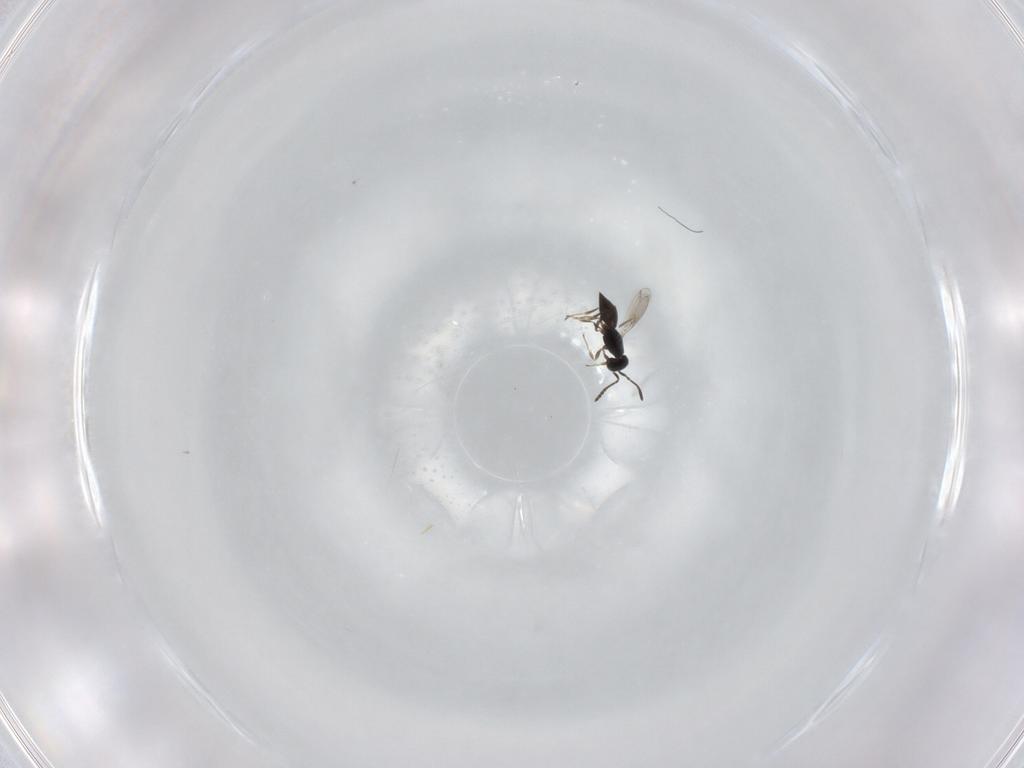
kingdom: Animalia
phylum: Arthropoda
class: Insecta
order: Hymenoptera
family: Scelionidae
